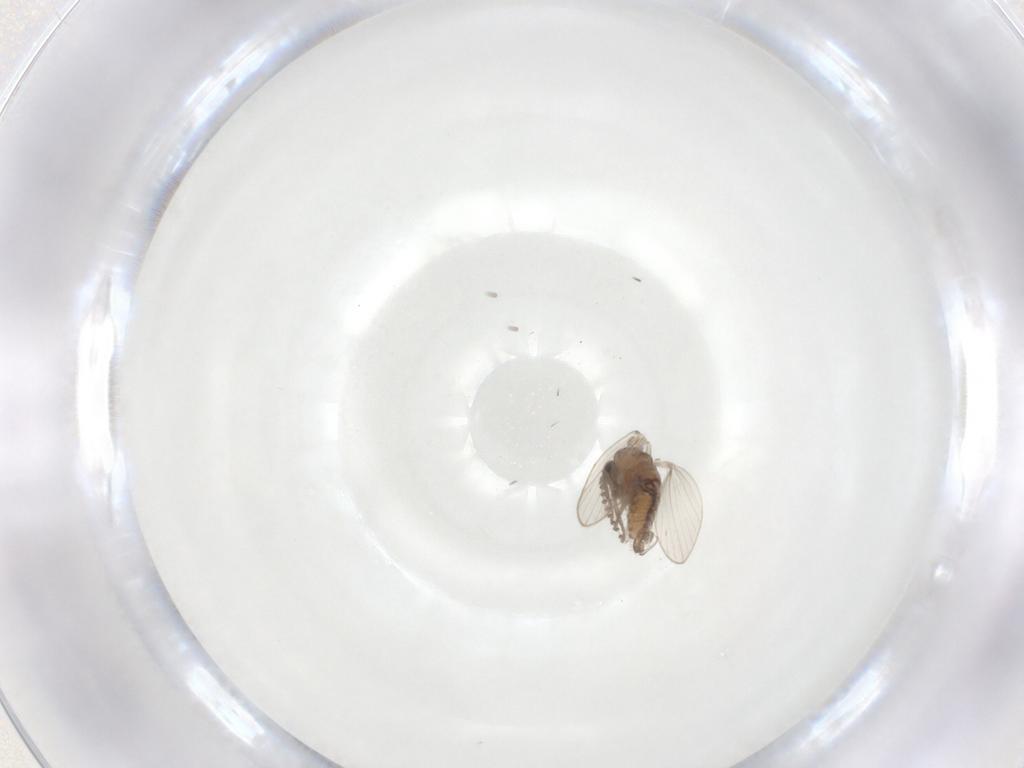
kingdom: Animalia
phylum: Arthropoda
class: Insecta
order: Diptera
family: Psychodidae
